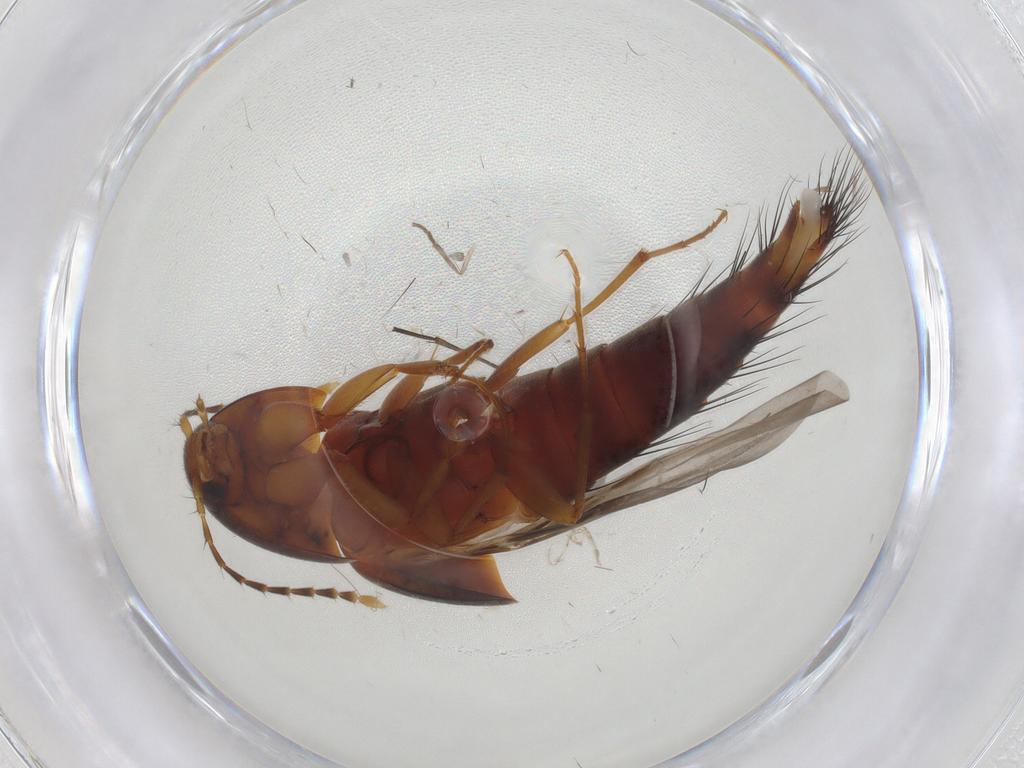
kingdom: Animalia
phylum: Arthropoda
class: Insecta
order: Coleoptera
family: Staphylinidae
